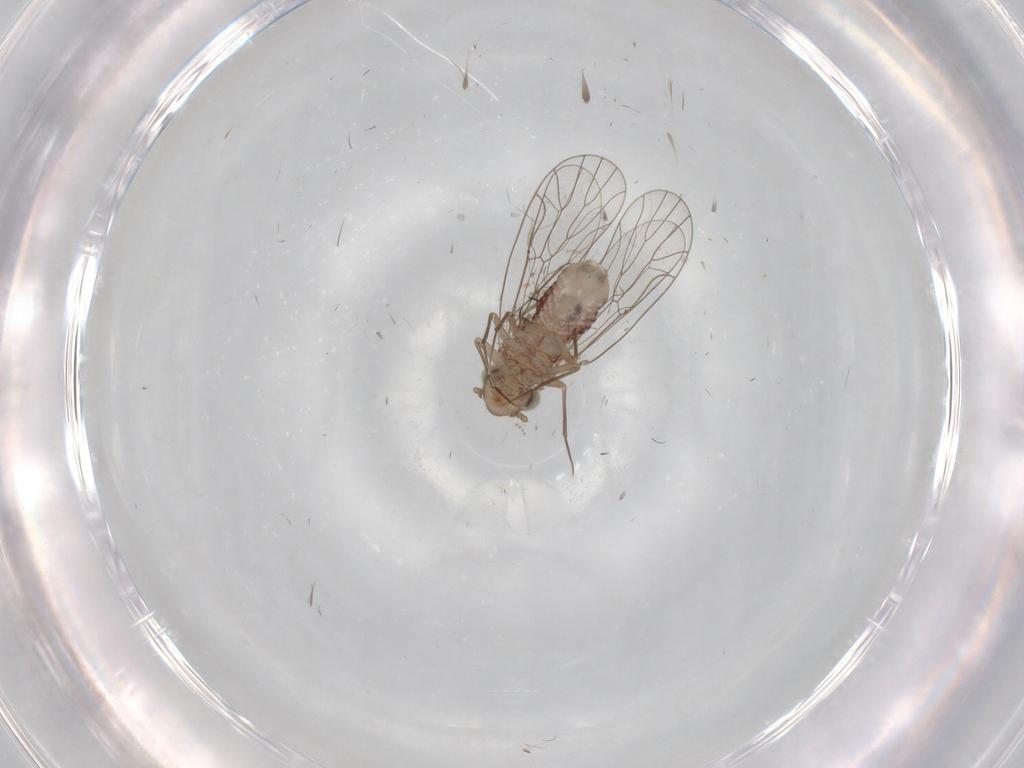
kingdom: Animalia
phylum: Arthropoda
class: Insecta
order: Psocodea
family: Amphientomidae
